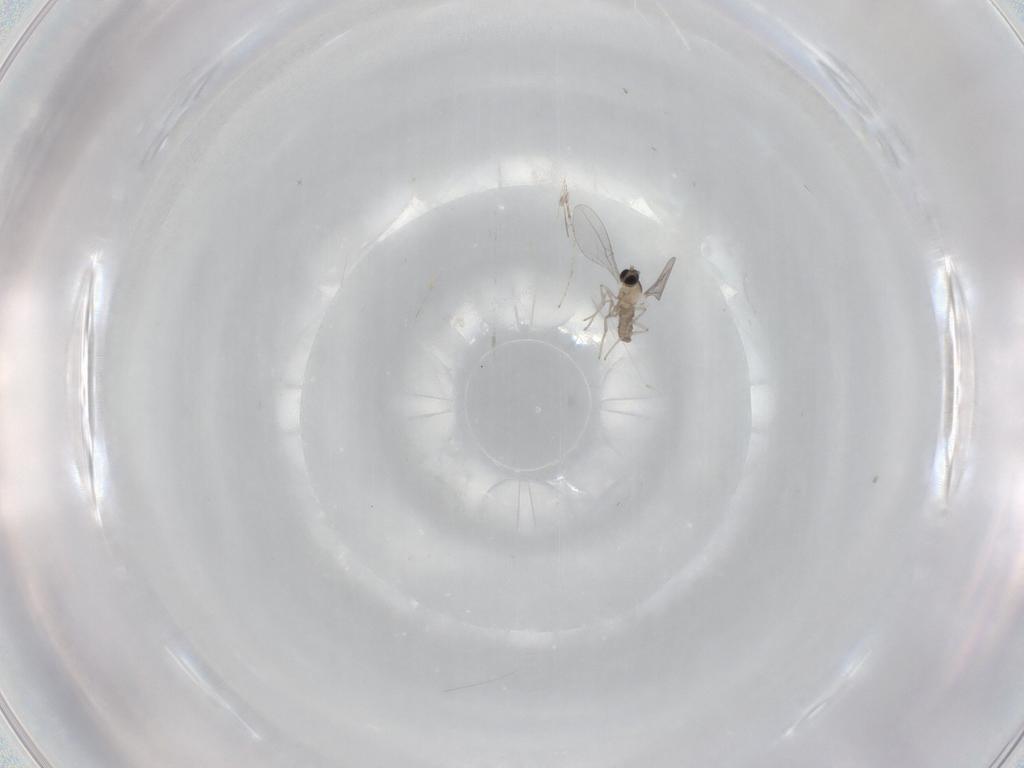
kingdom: Animalia
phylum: Arthropoda
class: Insecta
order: Diptera
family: Cecidomyiidae
